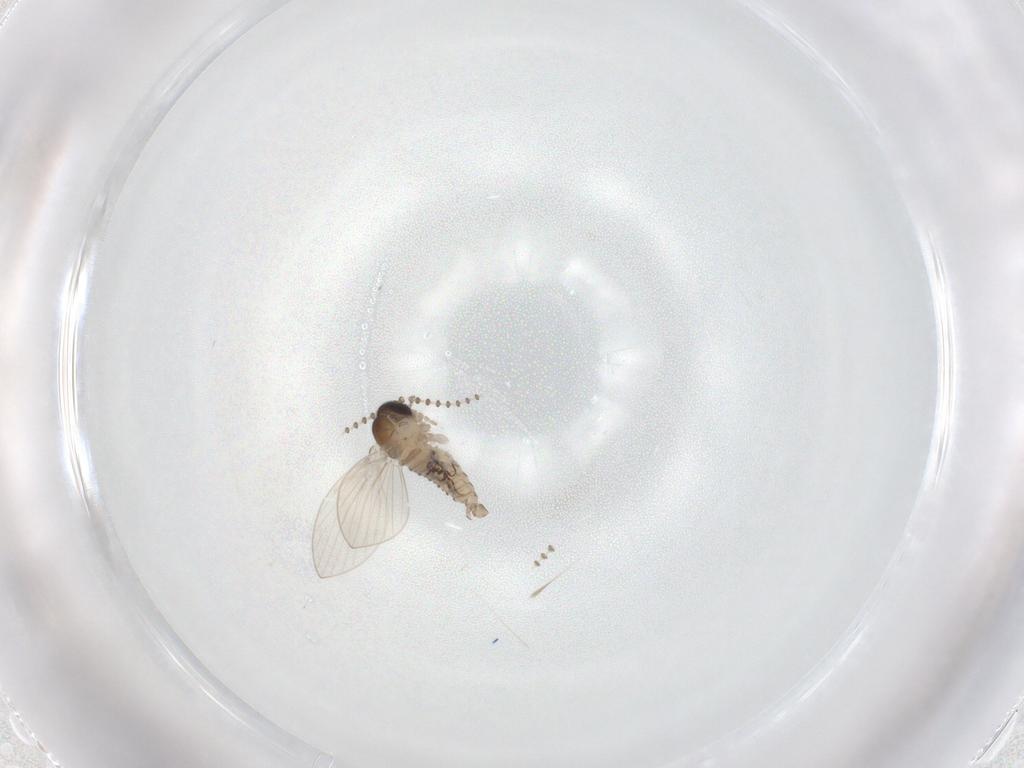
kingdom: Animalia
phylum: Arthropoda
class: Insecta
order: Diptera
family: Psychodidae
